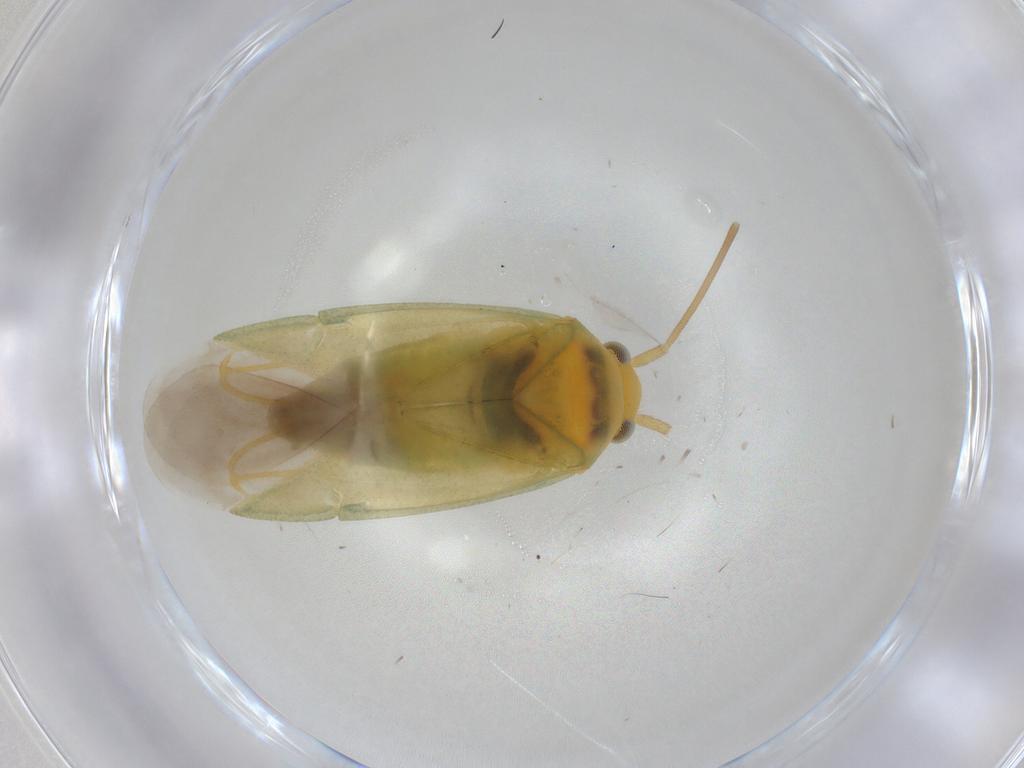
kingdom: Animalia
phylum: Arthropoda
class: Insecta
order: Hemiptera
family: Miridae
